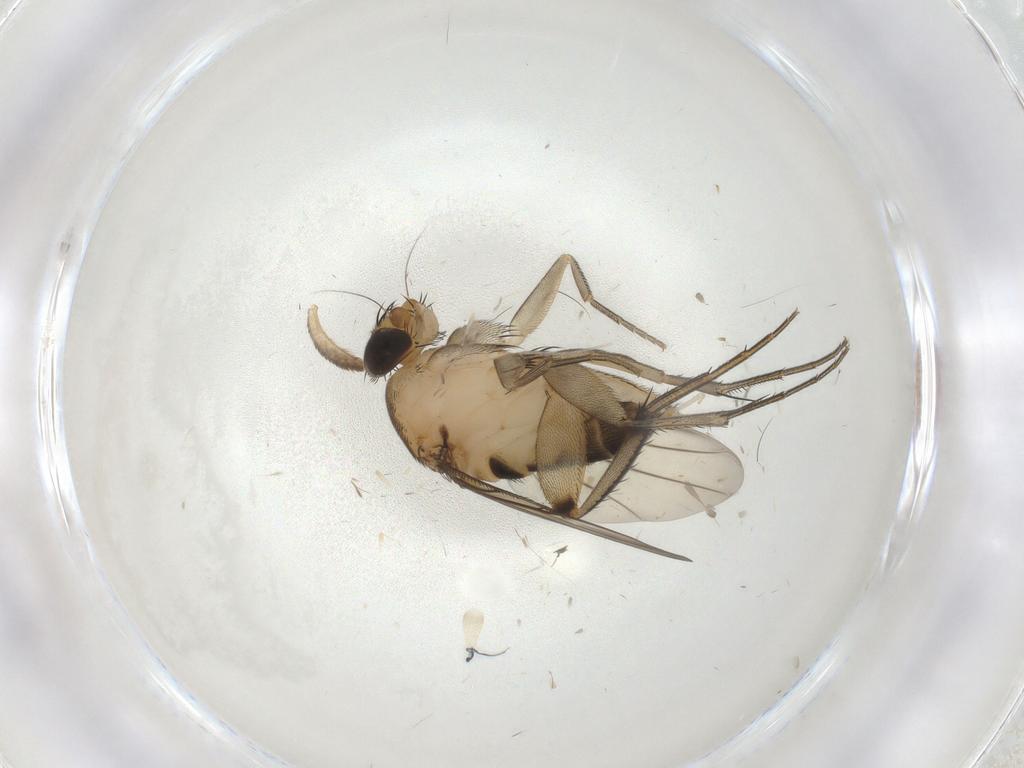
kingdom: Animalia
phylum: Arthropoda
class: Insecta
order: Diptera
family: Phoridae
